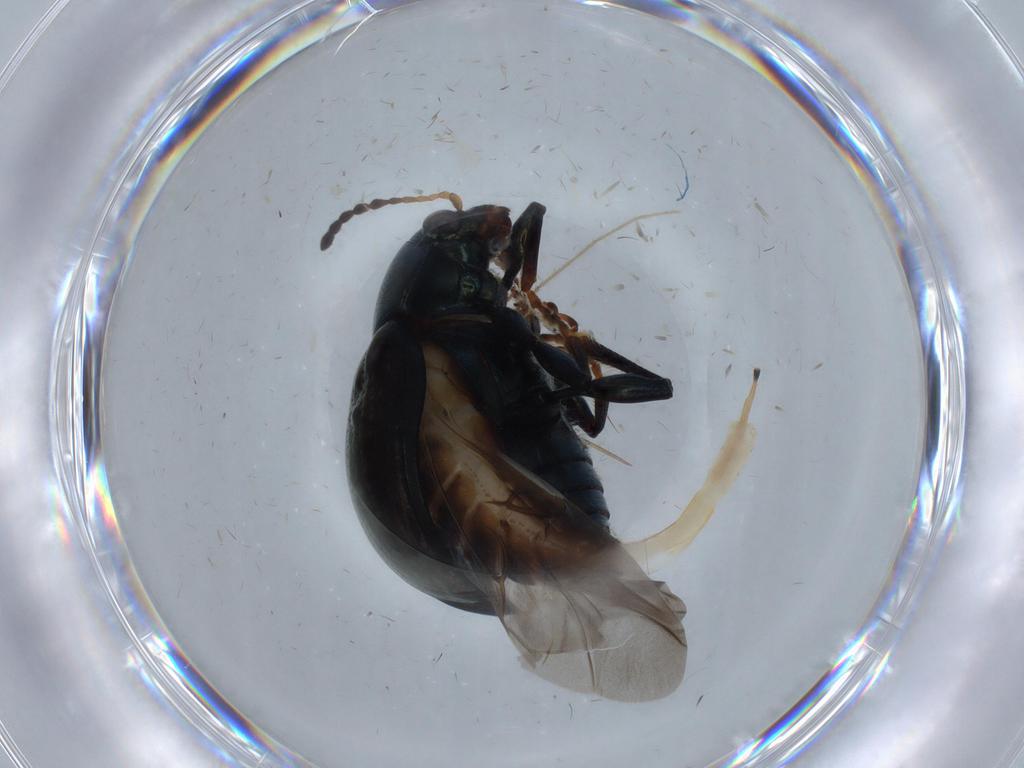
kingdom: Animalia
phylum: Arthropoda
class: Insecta
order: Coleoptera
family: Chrysomelidae
